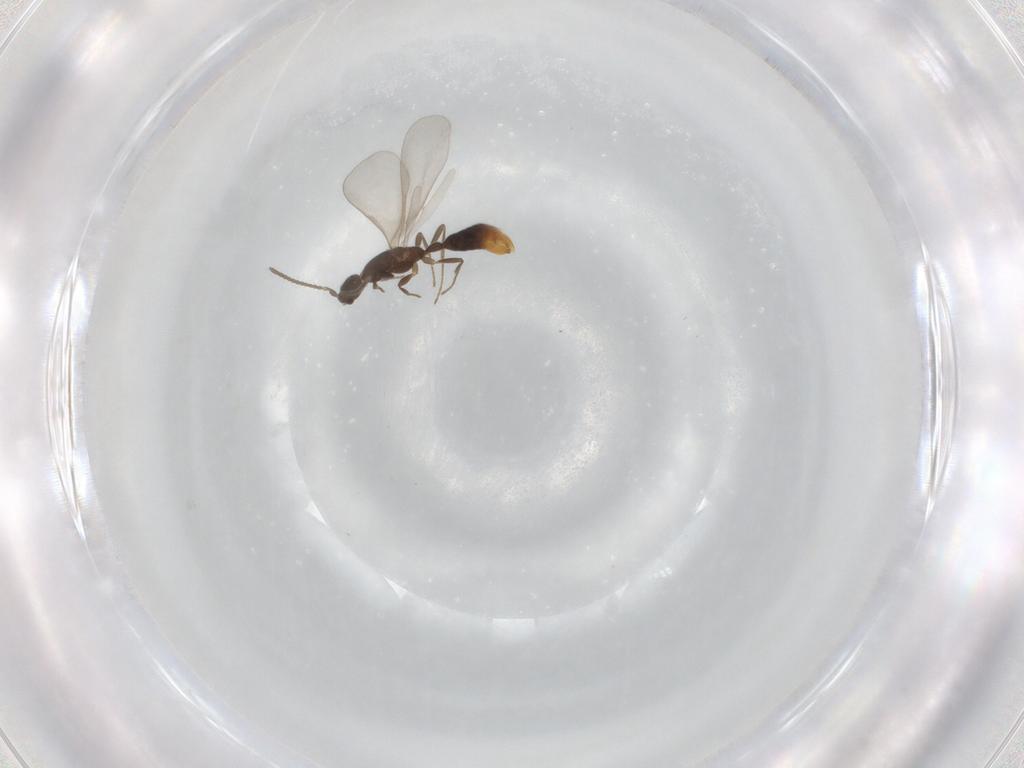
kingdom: Animalia
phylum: Arthropoda
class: Insecta
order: Hymenoptera
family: Formicidae
